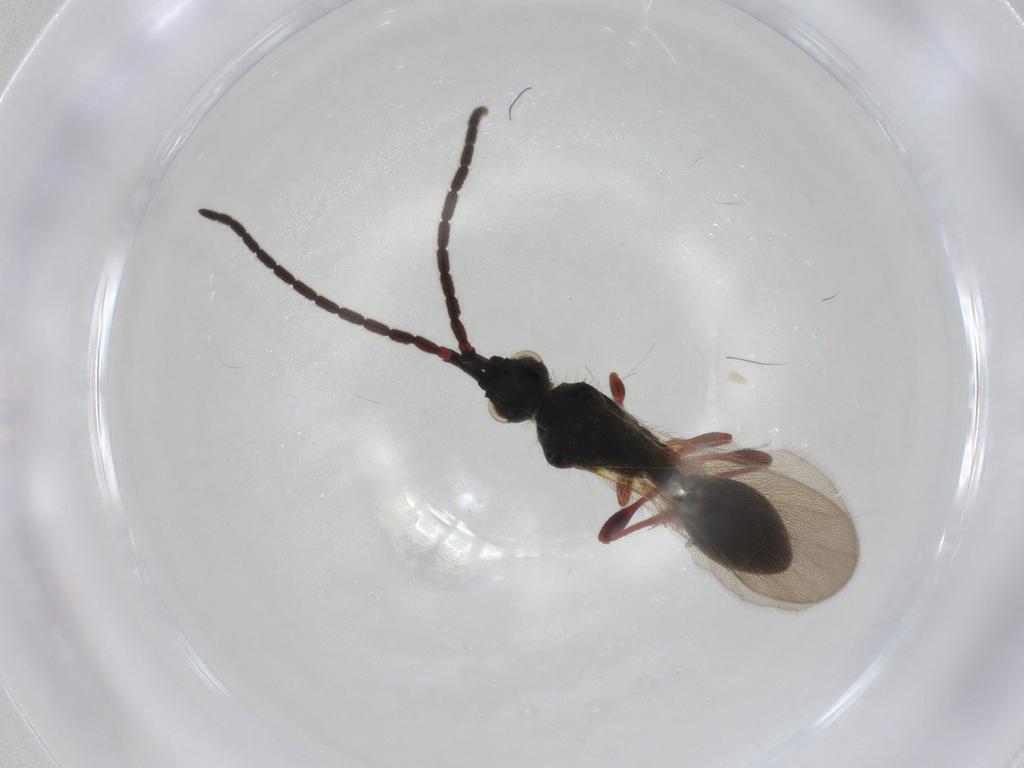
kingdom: Animalia
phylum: Arthropoda
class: Insecta
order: Hymenoptera
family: Diapriidae
